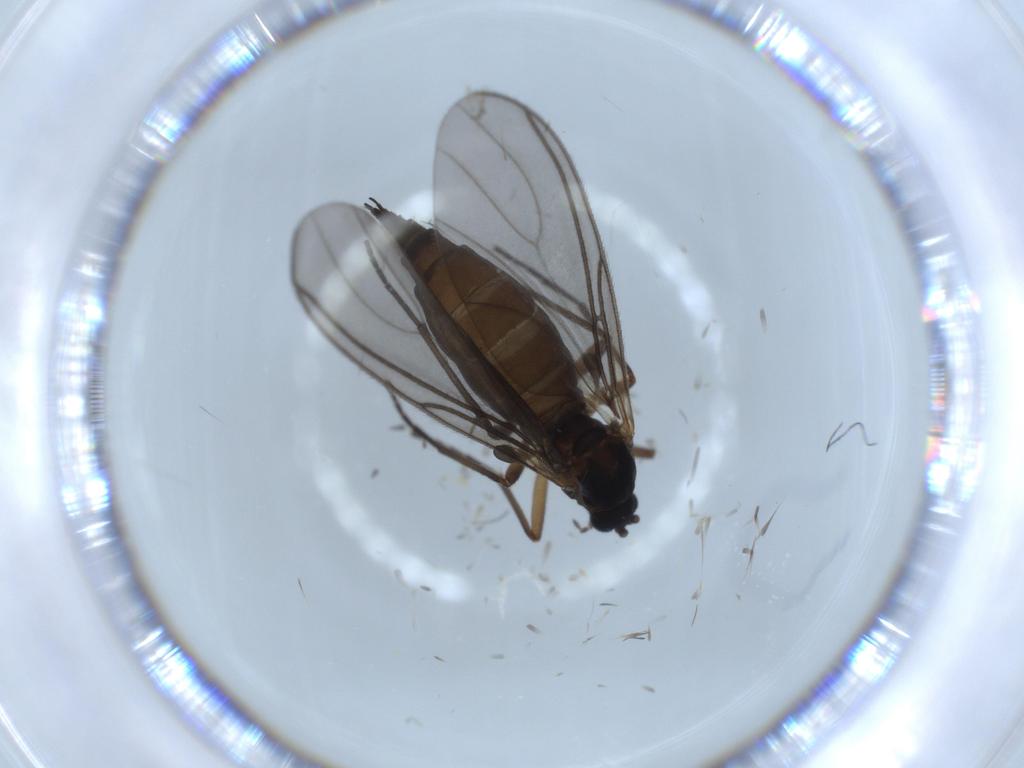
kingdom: Animalia
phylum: Arthropoda
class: Insecta
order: Diptera
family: Sciaridae
